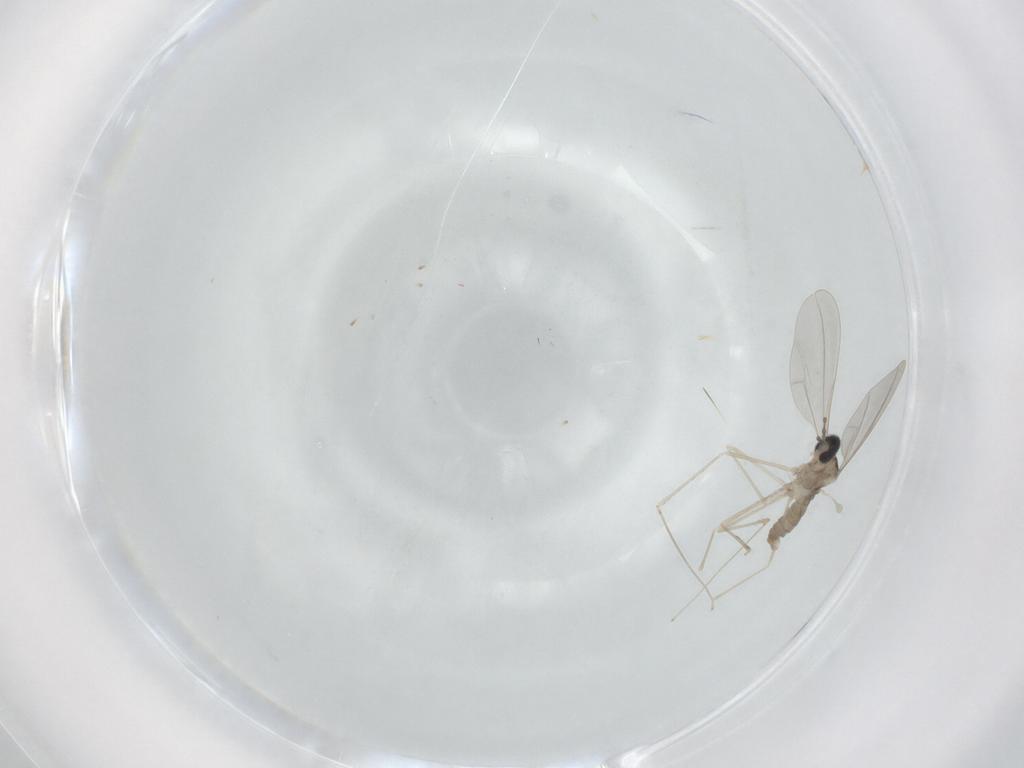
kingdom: Animalia
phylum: Arthropoda
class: Insecta
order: Diptera
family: Cecidomyiidae
